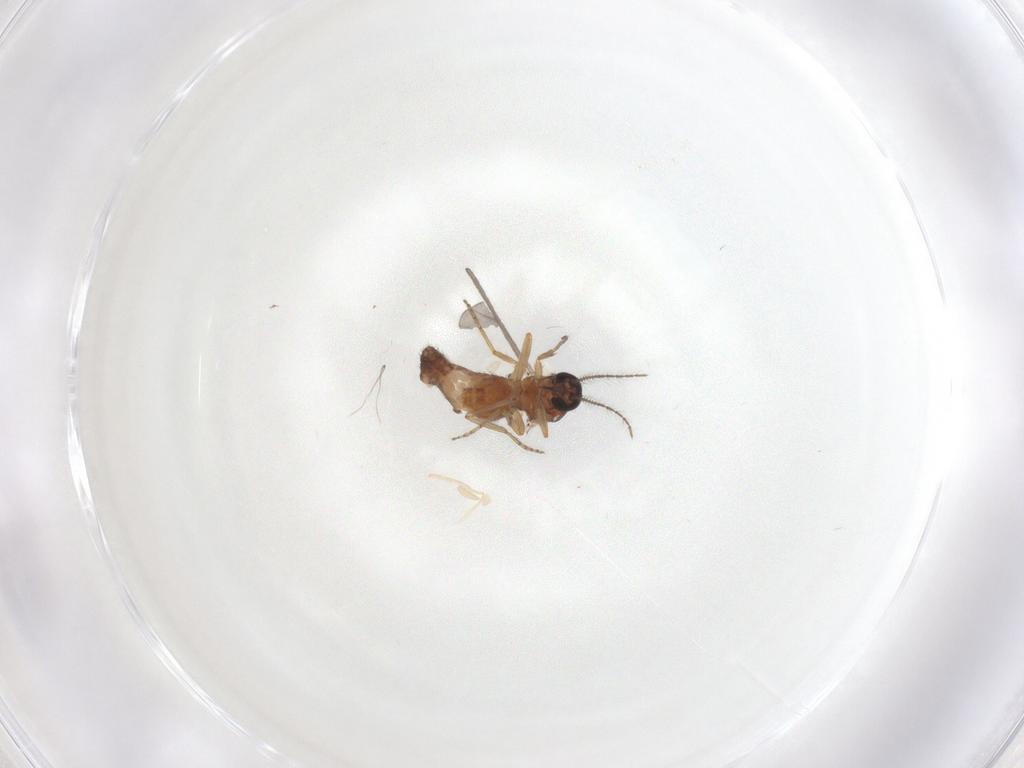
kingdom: Animalia
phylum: Arthropoda
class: Insecta
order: Diptera
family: Ceratopogonidae
